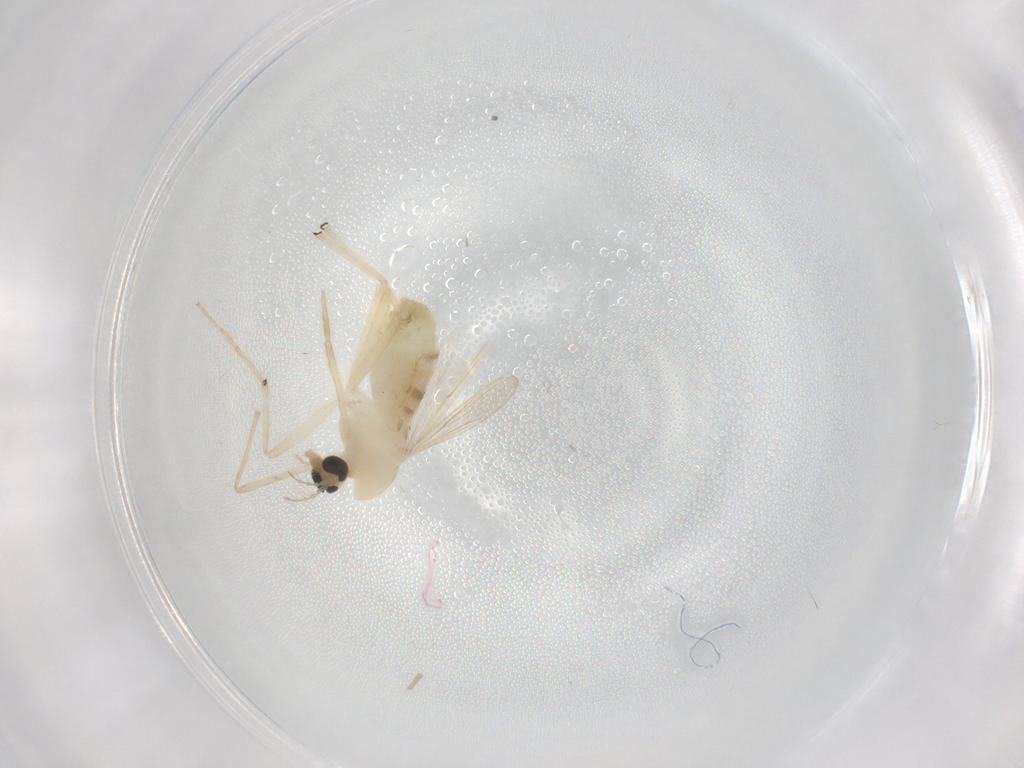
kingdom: Animalia
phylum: Arthropoda
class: Insecta
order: Diptera
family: Chironomidae
